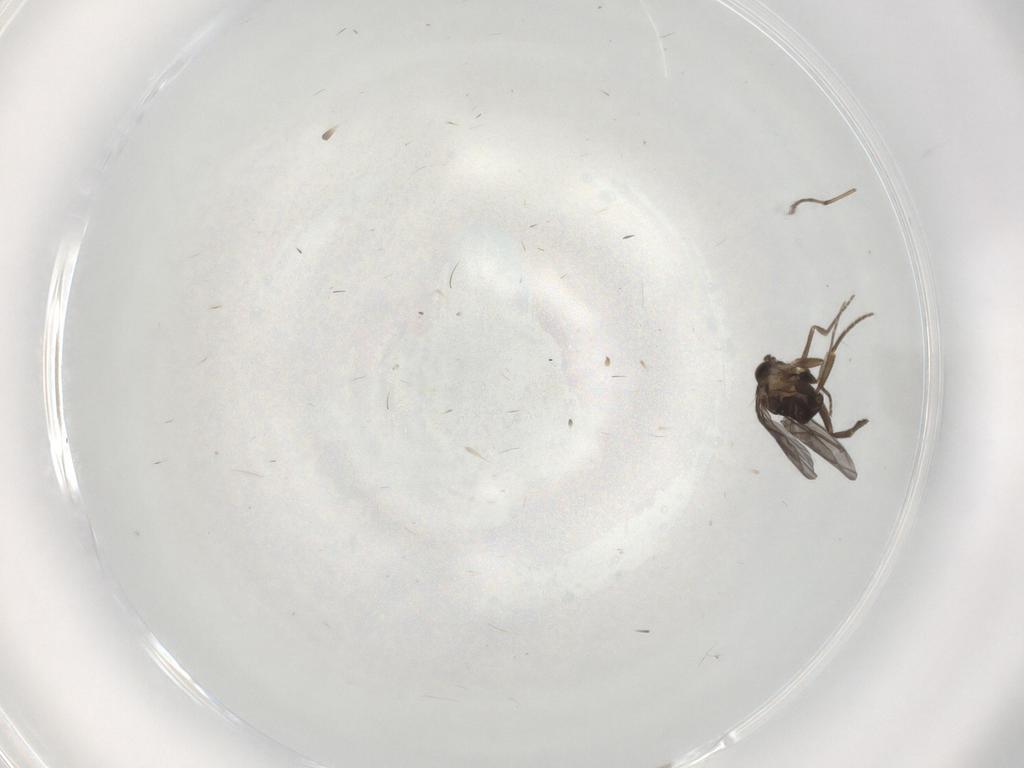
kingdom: Animalia
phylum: Arthropoda
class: Insecta
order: Diptera
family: Phoridae
